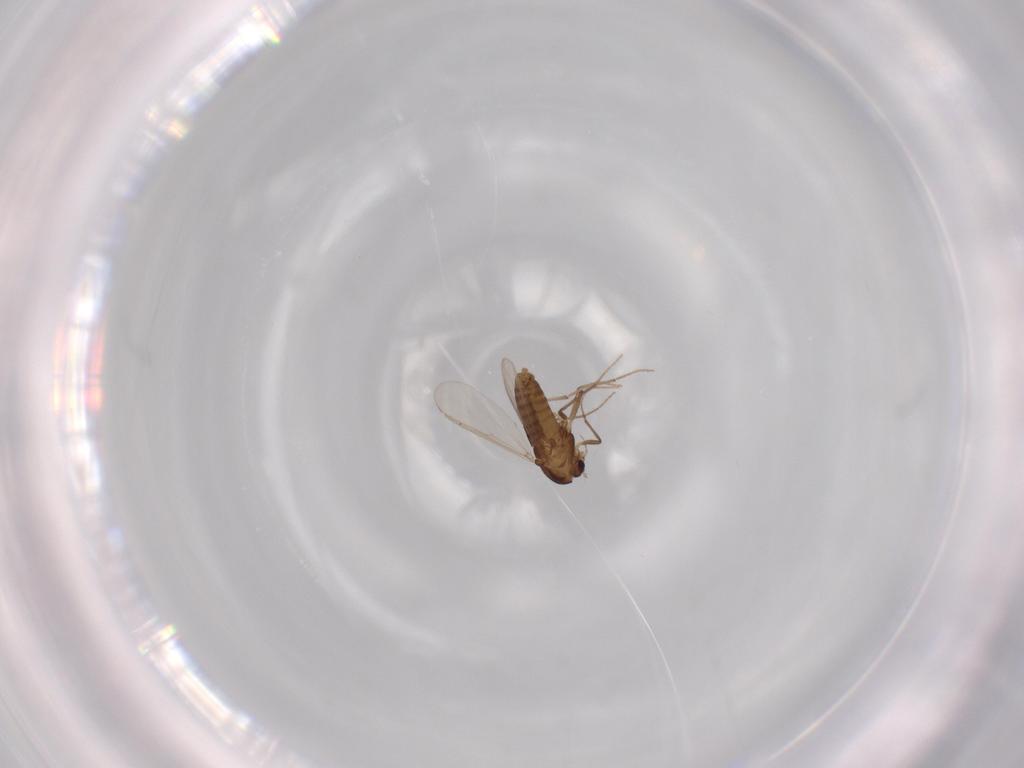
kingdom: Animalia
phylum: Arthropoda
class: Insecta
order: Diptera
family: Chironomidae
